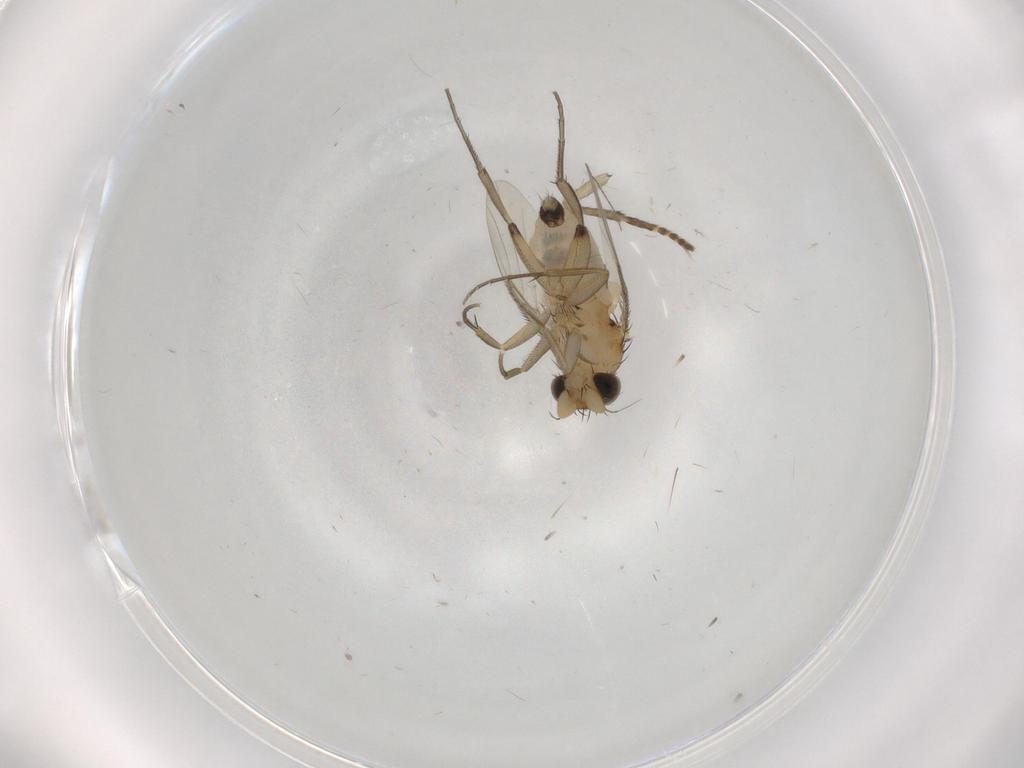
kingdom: Animalia
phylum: Arthropoda
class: Insecta
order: Diptera
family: Phoridae
